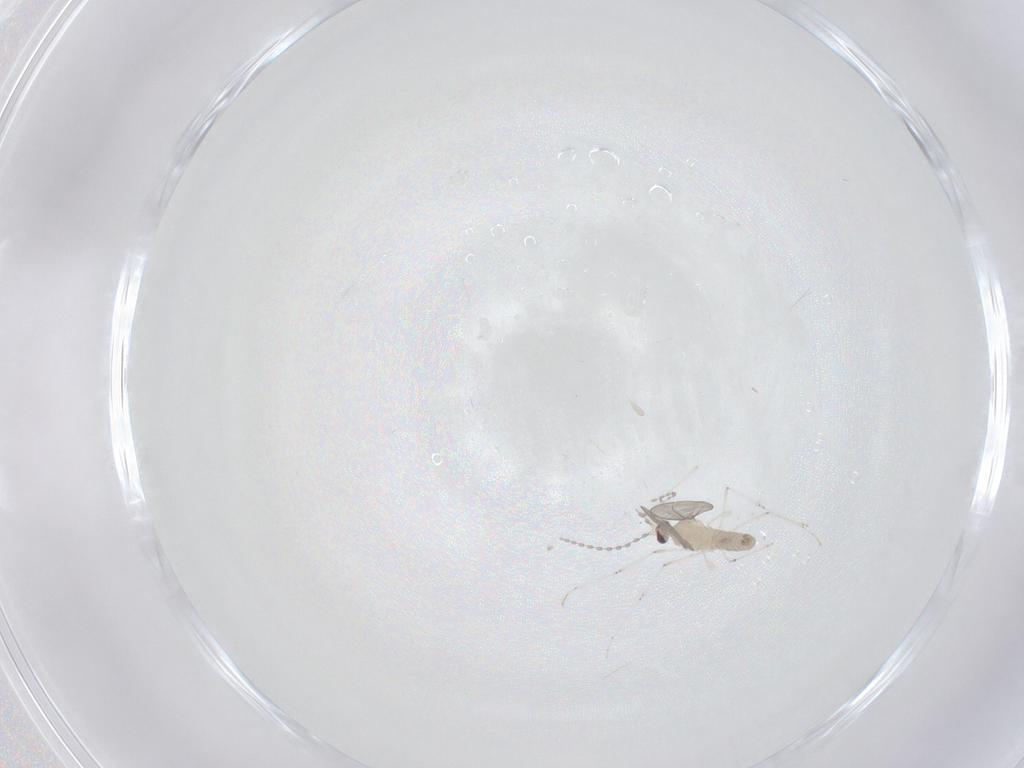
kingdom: Animalia
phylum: Arthropoda
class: Insecta
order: Diptera
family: Cecidomyiidae
